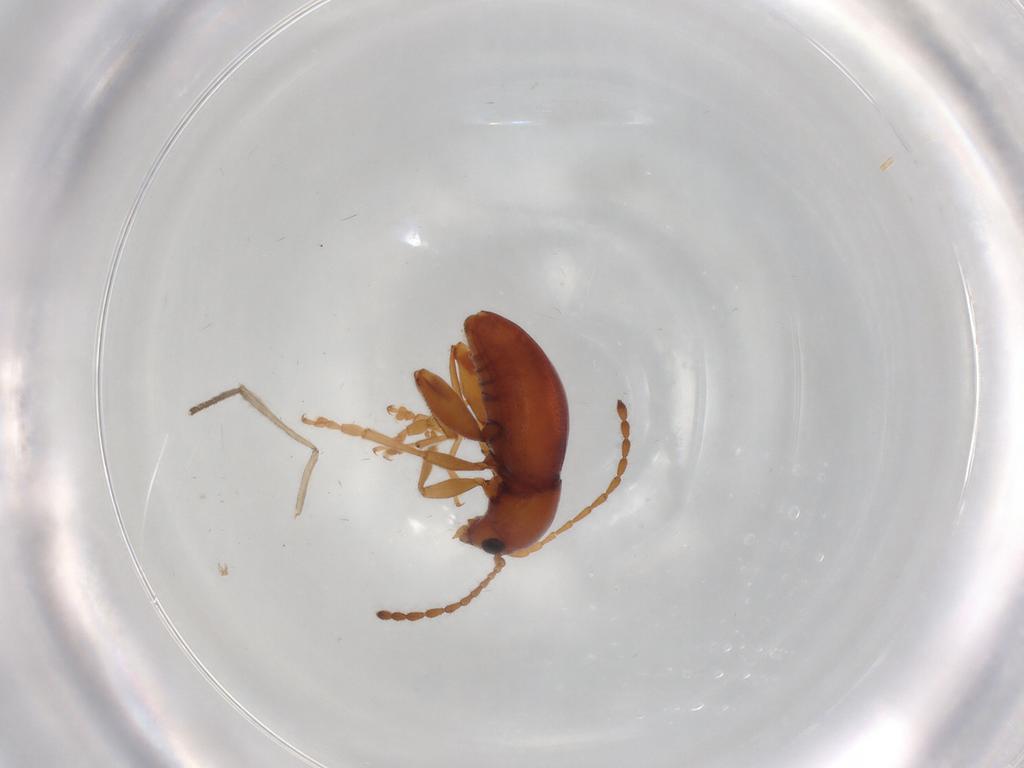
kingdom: Animalia
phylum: Arthropoda
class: Insecta
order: Coleoptera
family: Chrysomelidae
